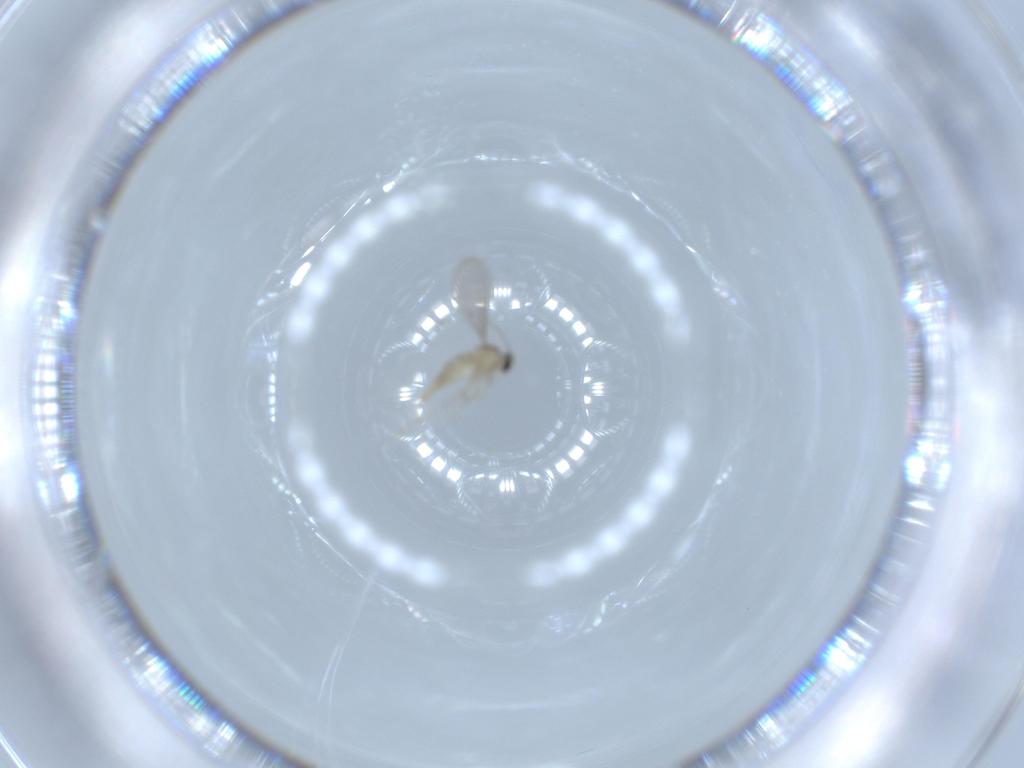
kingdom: Animalia
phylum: Arthropoda
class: Insecta
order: Diptera
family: Cecidomyiidae
